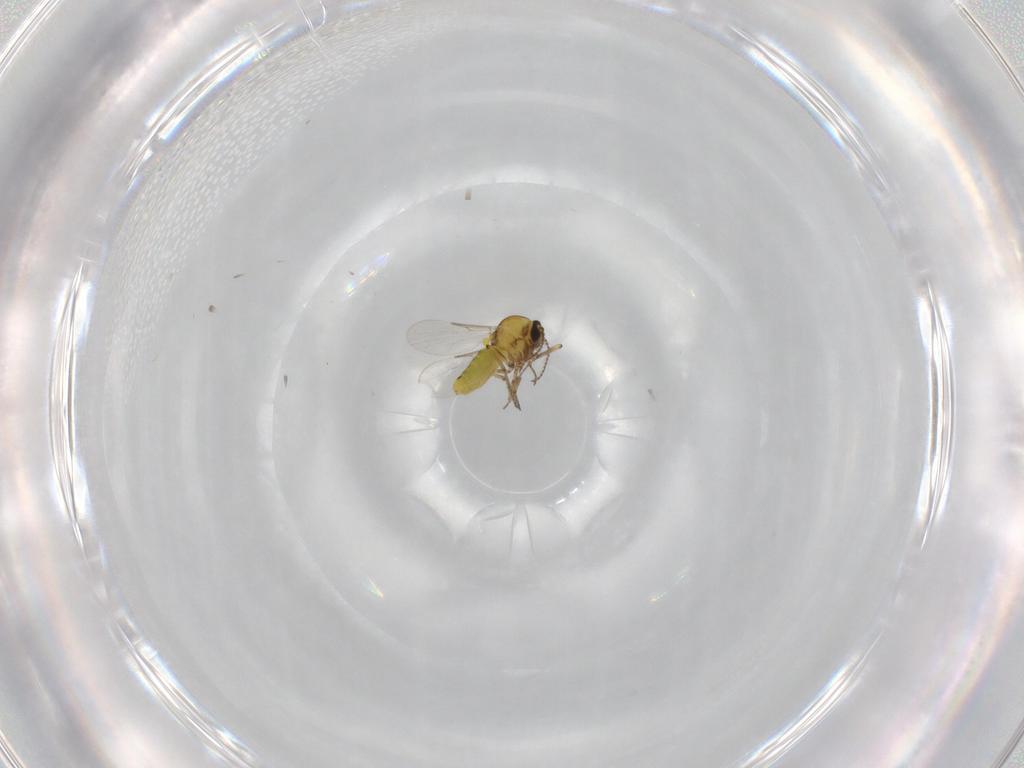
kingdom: Animalia
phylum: Arthropoda
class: Insecta
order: Diptera
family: Ceratopogonidae
